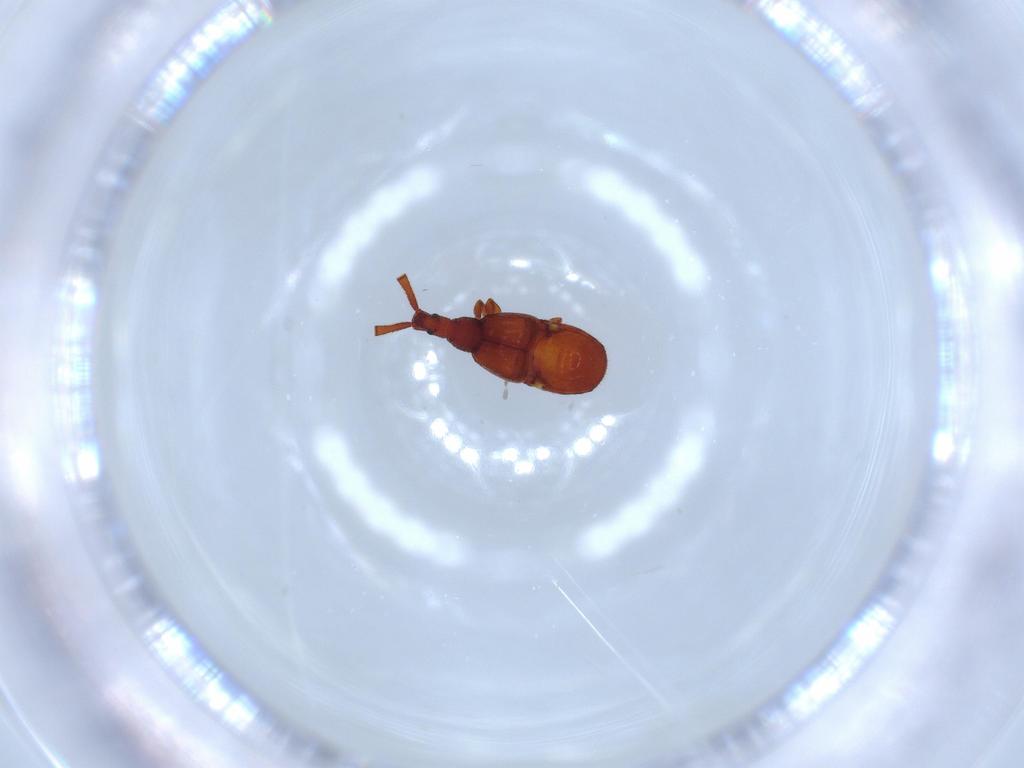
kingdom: Animalia
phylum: Arthropoda
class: Insecta
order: Coleoptera
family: Staphylinidae
